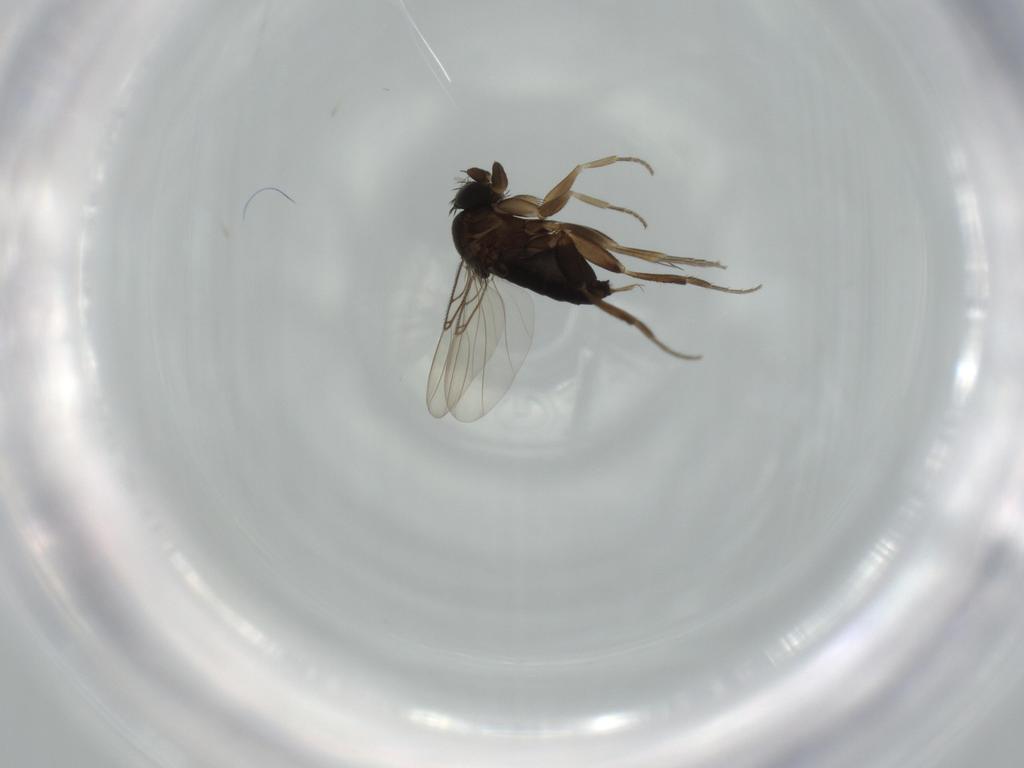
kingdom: Animalia
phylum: Arthropoda
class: Insecta
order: Diptera
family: Phoridae
